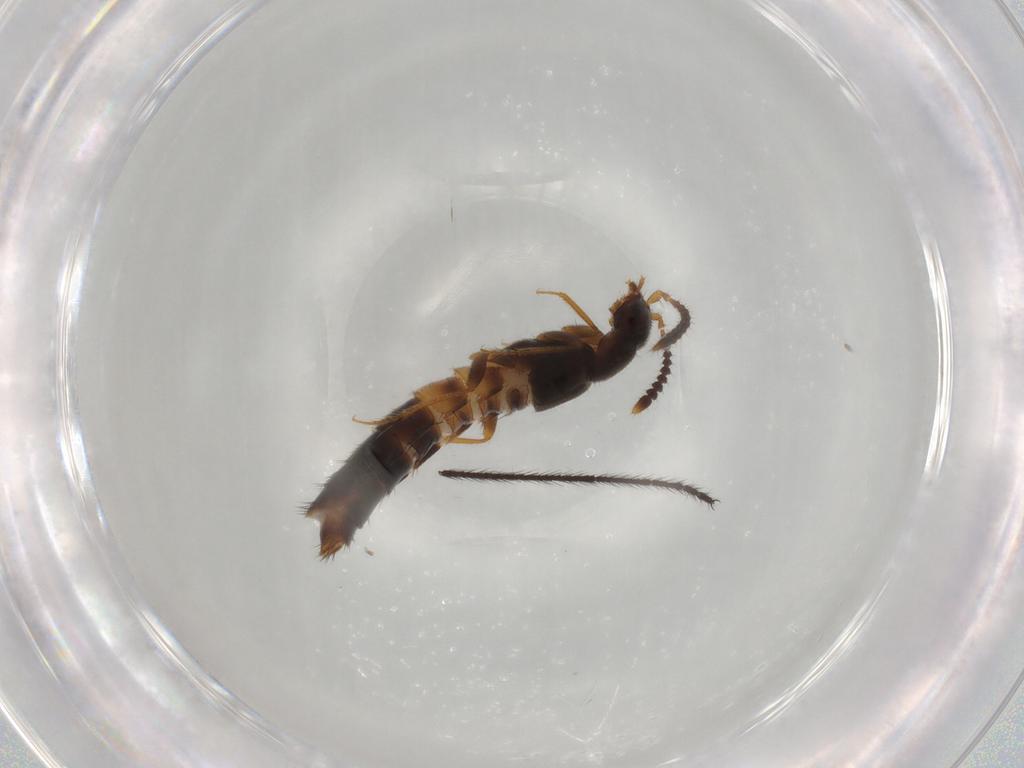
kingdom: Animalia
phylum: Arthropoda
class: Insecta
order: Coleoptera
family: Staphylinidae
